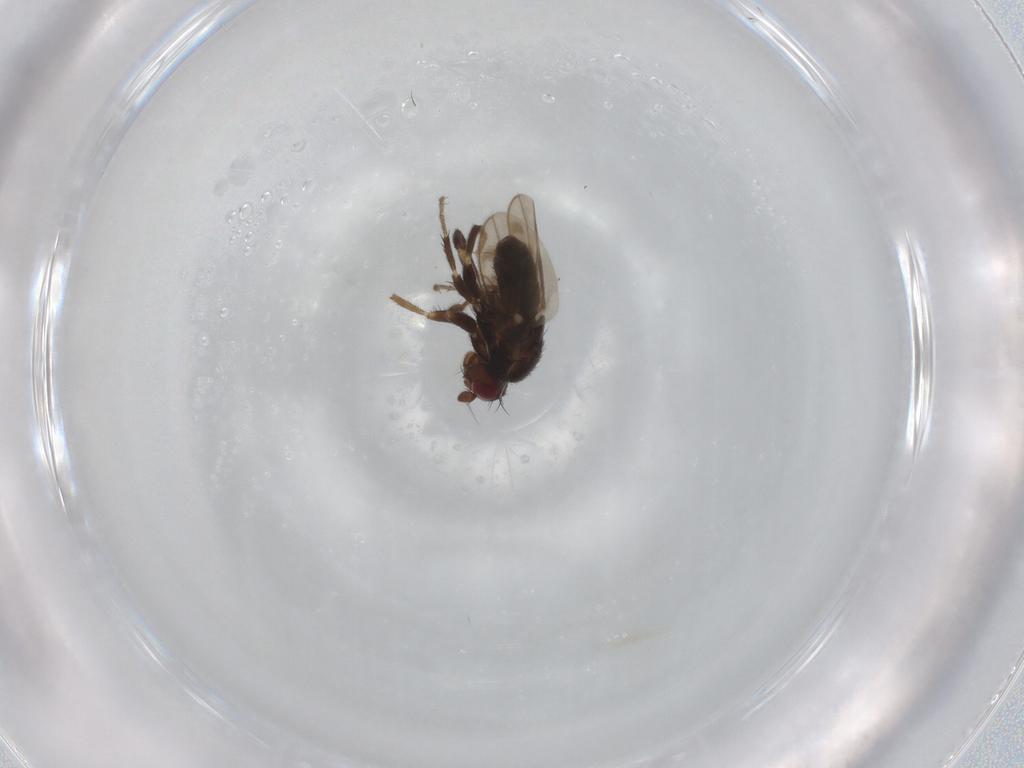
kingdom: Animalia
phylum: Arthropoda
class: Insecta
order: Diptera
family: Sphaeroceridae
